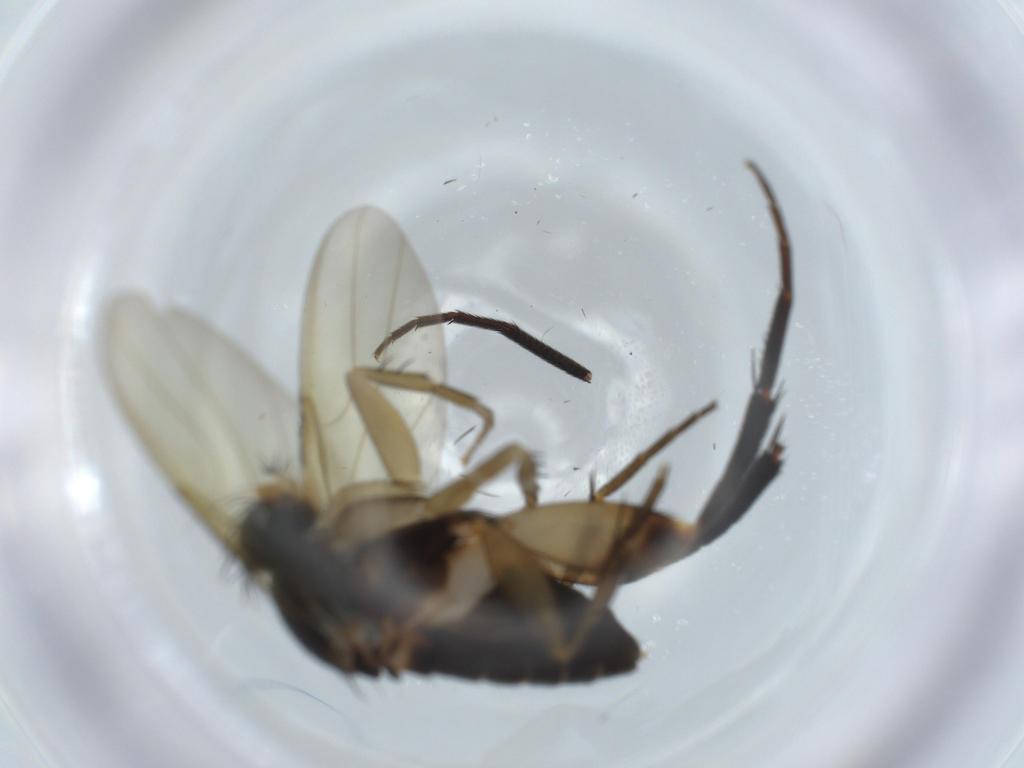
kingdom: Animalia
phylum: Arthropoda
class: Insecta
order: Diptera
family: Phoridae
